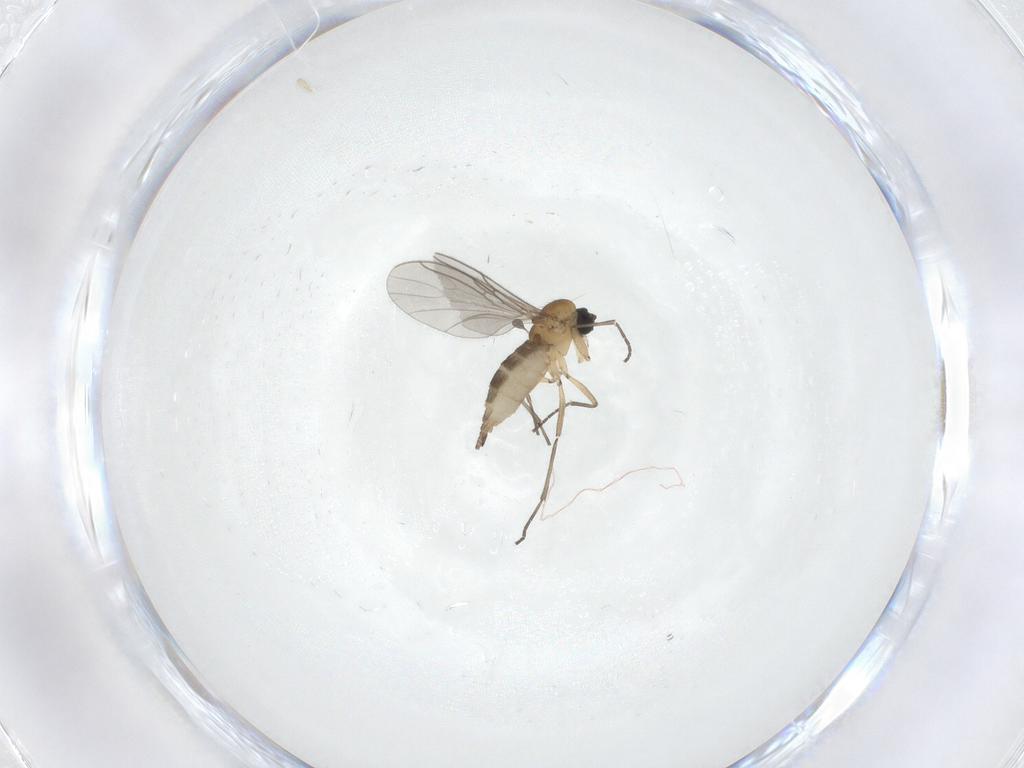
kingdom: Animalia
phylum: Arthropoda
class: Insecta
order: Diptera
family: Sciaridae
